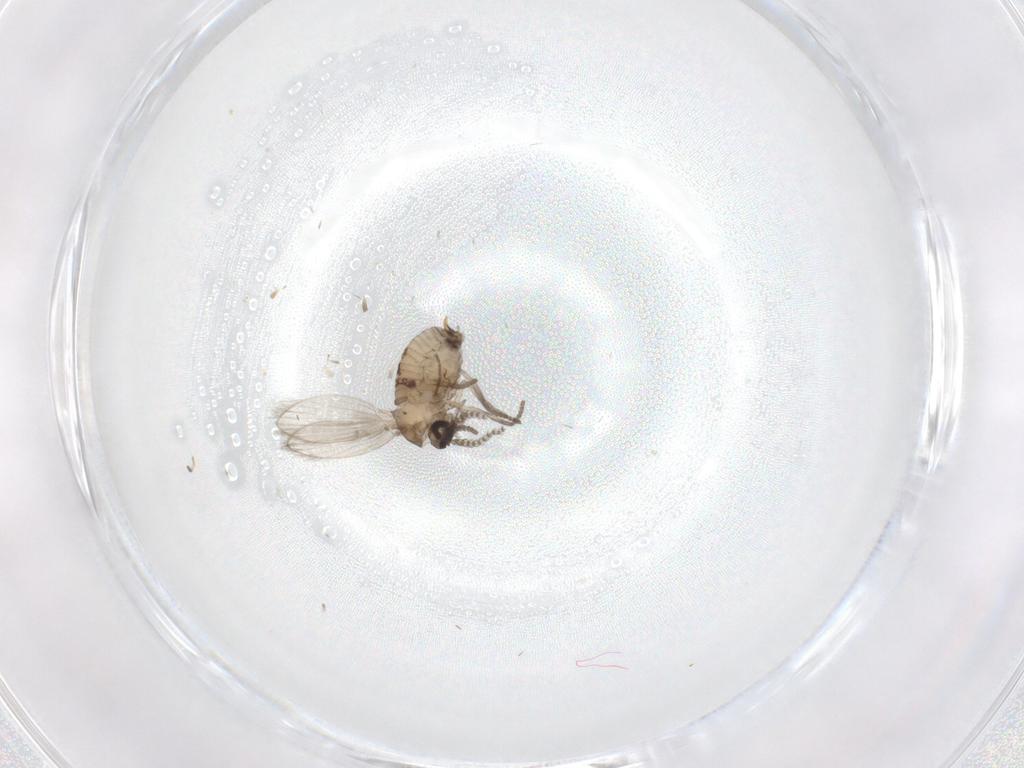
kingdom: Animalia
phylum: Arthropoda
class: Insecta
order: Diptera
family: Psychodidae
